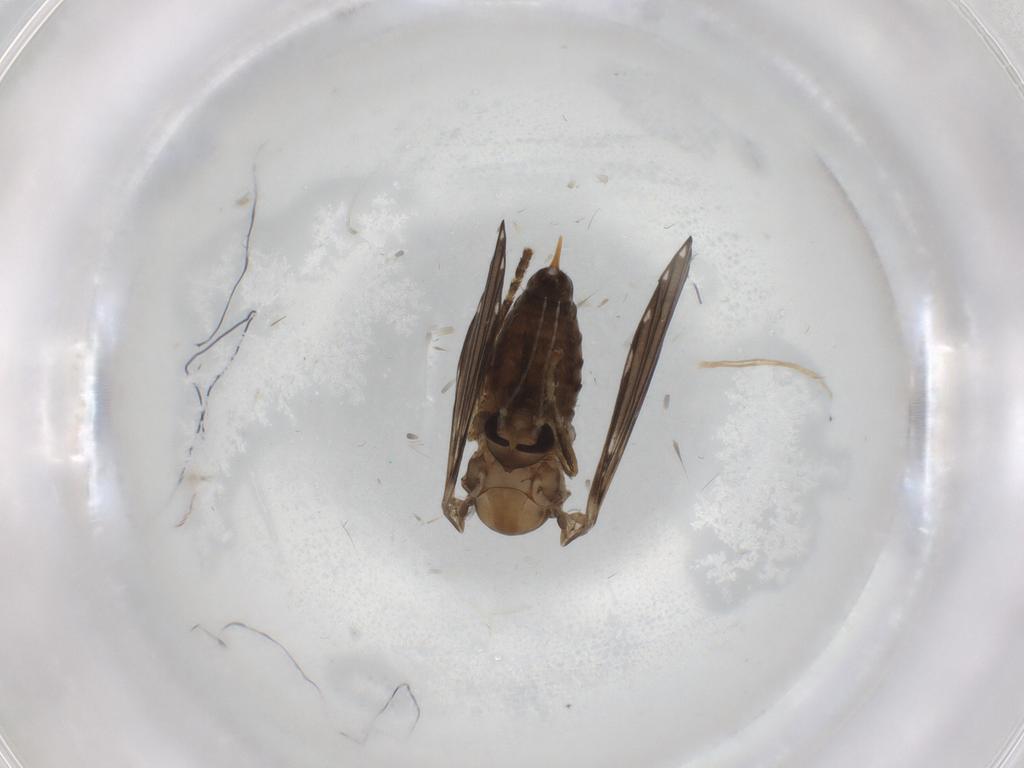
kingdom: Animalia
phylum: Arthropoda
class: Insecta
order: Diptera
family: Psychodidae
